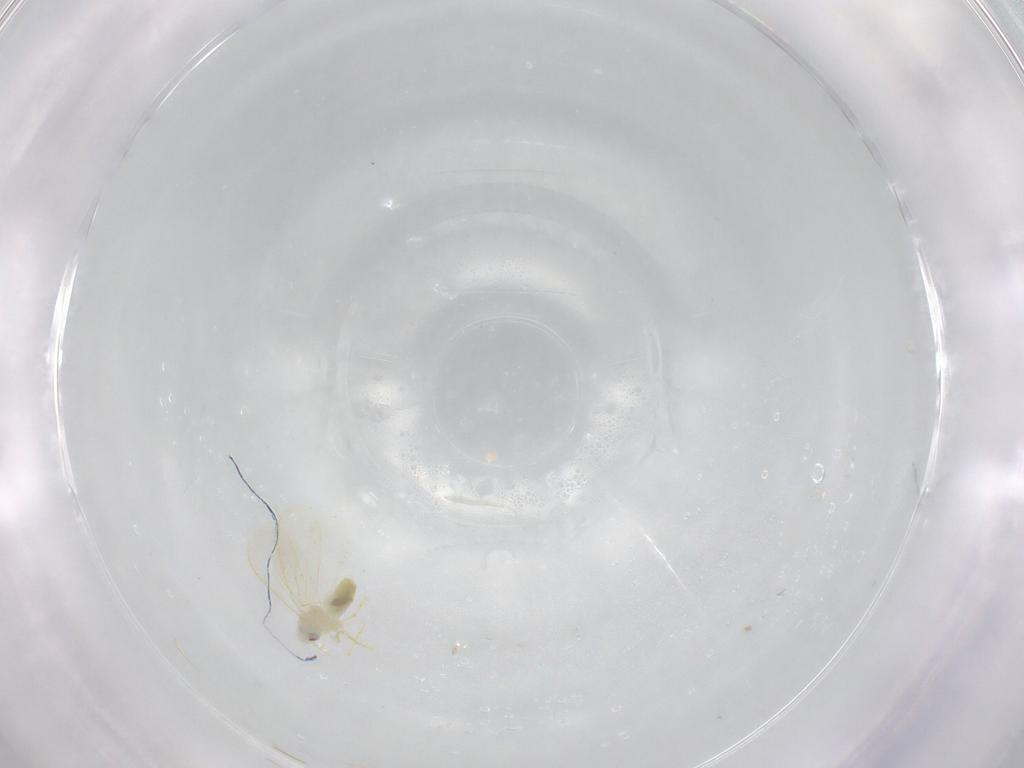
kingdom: Animalia
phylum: Arthropoda
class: Insecta
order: Hemiptera
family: Aleyrodidae
